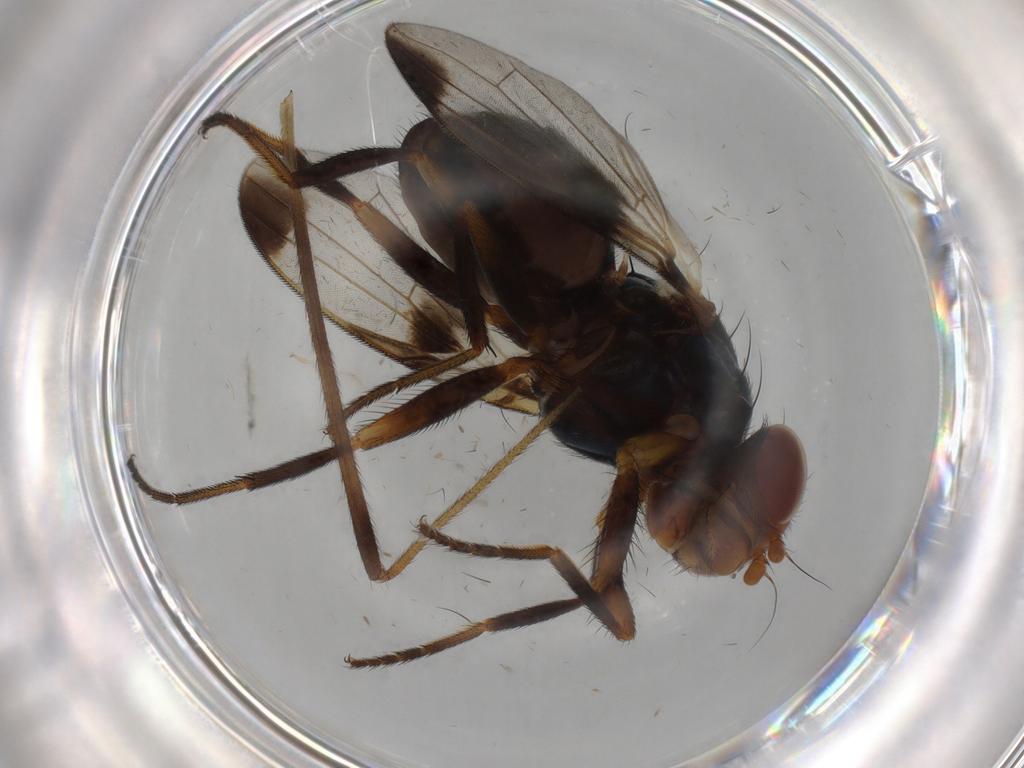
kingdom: Animalia
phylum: Arthropoda
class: Insecta
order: Diptera
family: Ulidiidae
